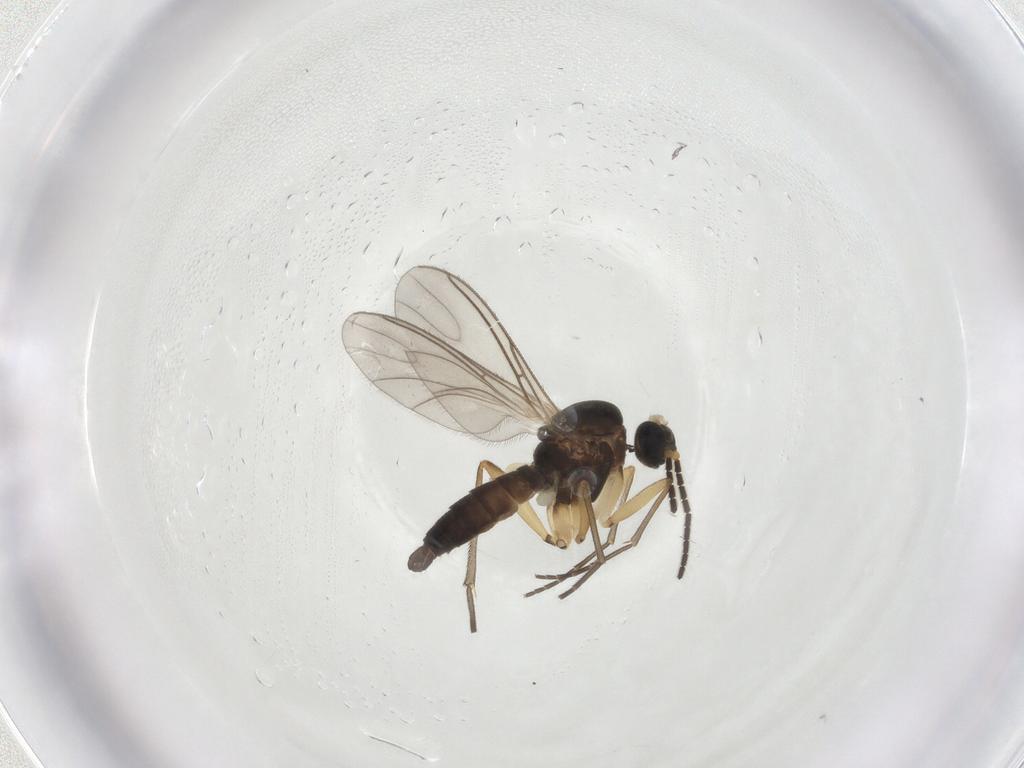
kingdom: Animalia
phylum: Arthropoda
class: Insecta
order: Diptera
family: Sciaridae
